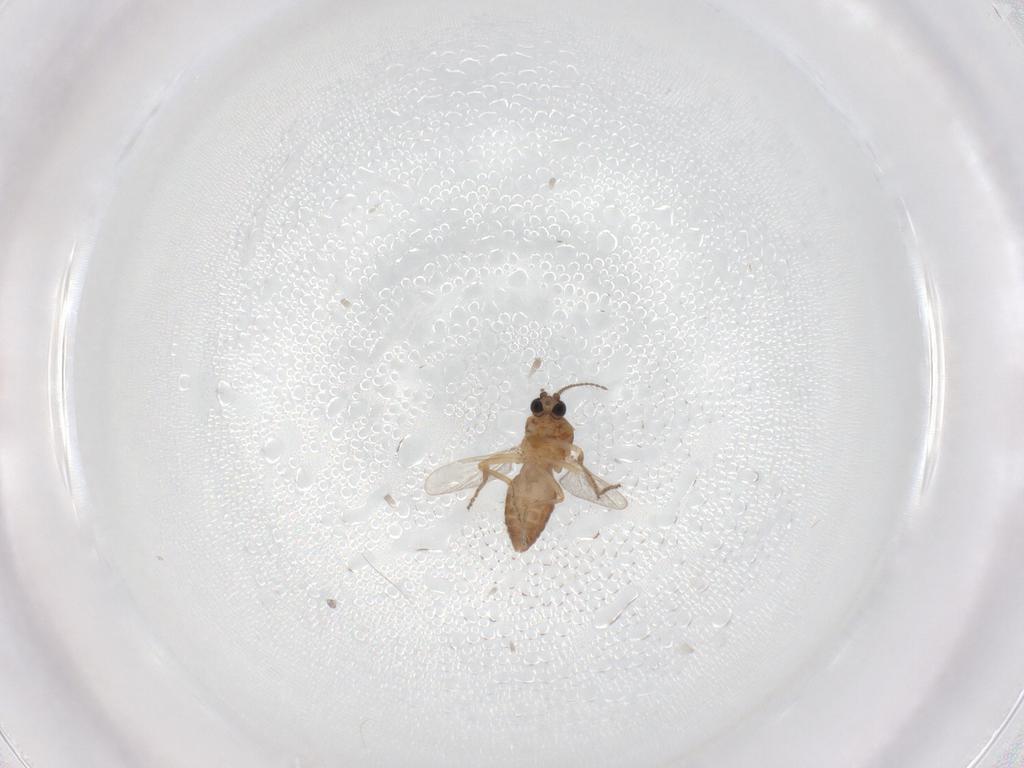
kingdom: Animalia
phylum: Arthropoda
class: Insecta
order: Diptera
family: Ceratopogonidae
